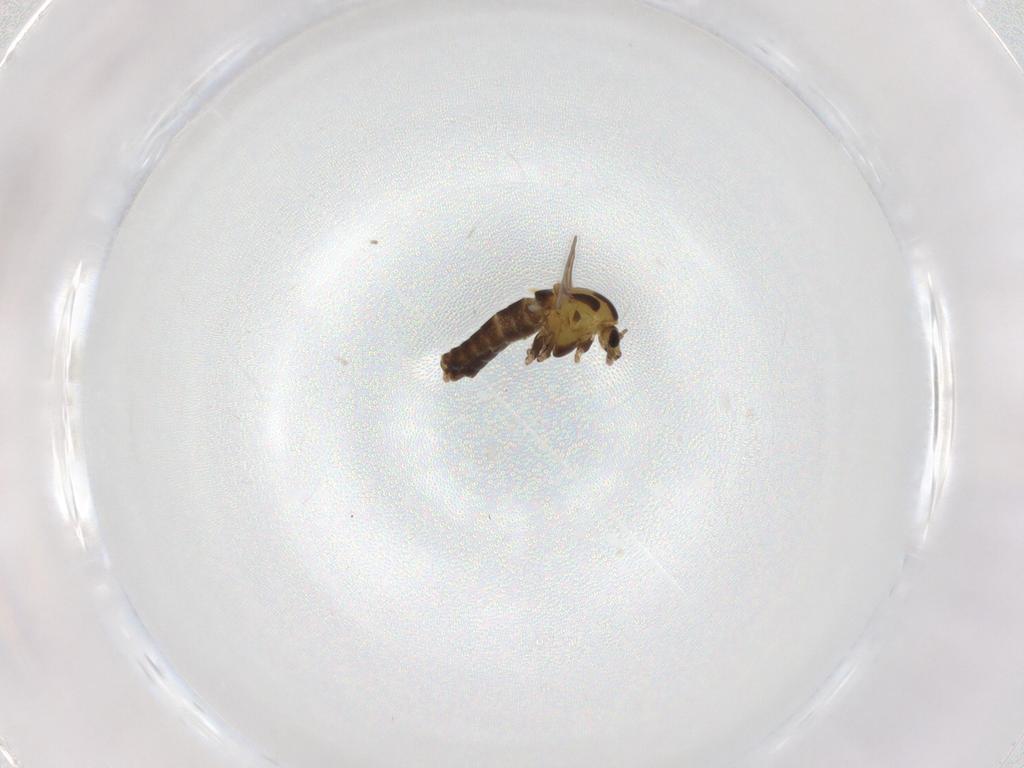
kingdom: Animalia
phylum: Arthropoda
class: Insecta
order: Diptera
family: Chironomidae
